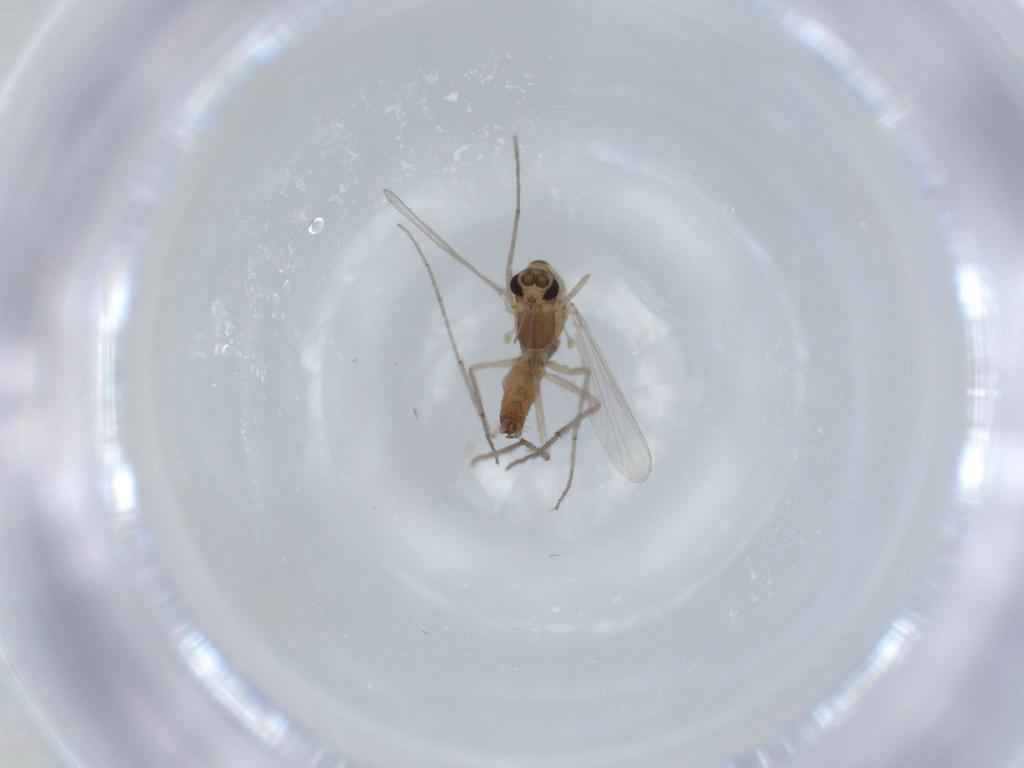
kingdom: Animalia
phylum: Arthropoda
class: Insecta
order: Diptera
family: Chironomidae
